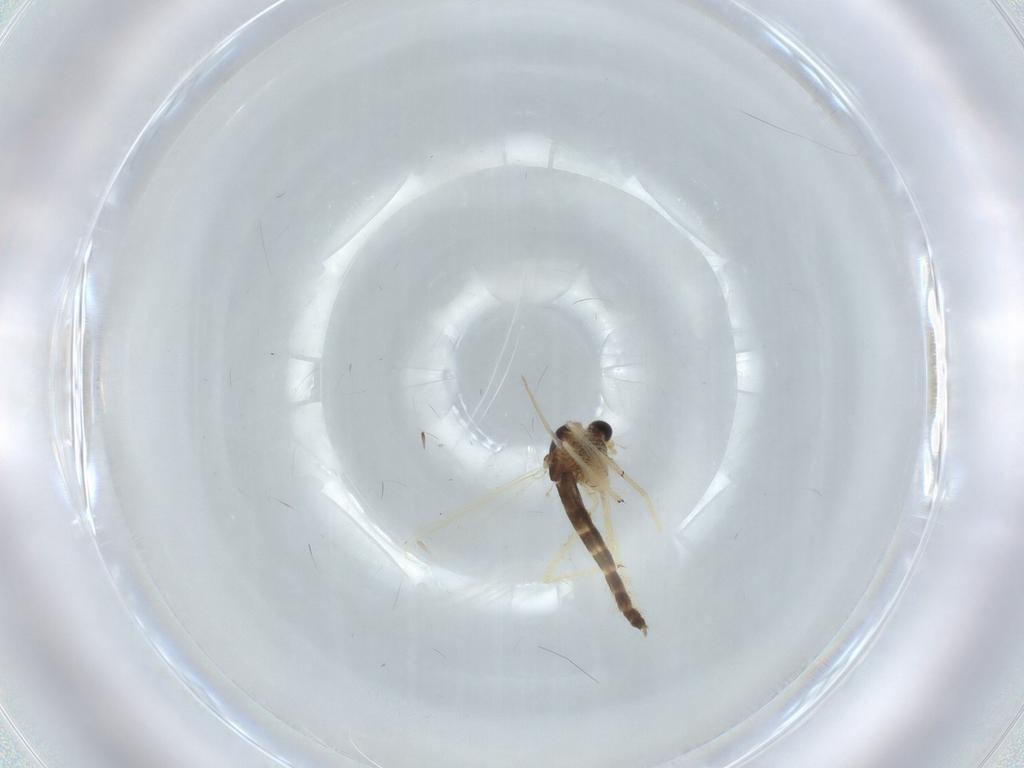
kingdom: Animalia
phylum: Arthropoda
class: Insecta
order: Diptera
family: Chironomidae
